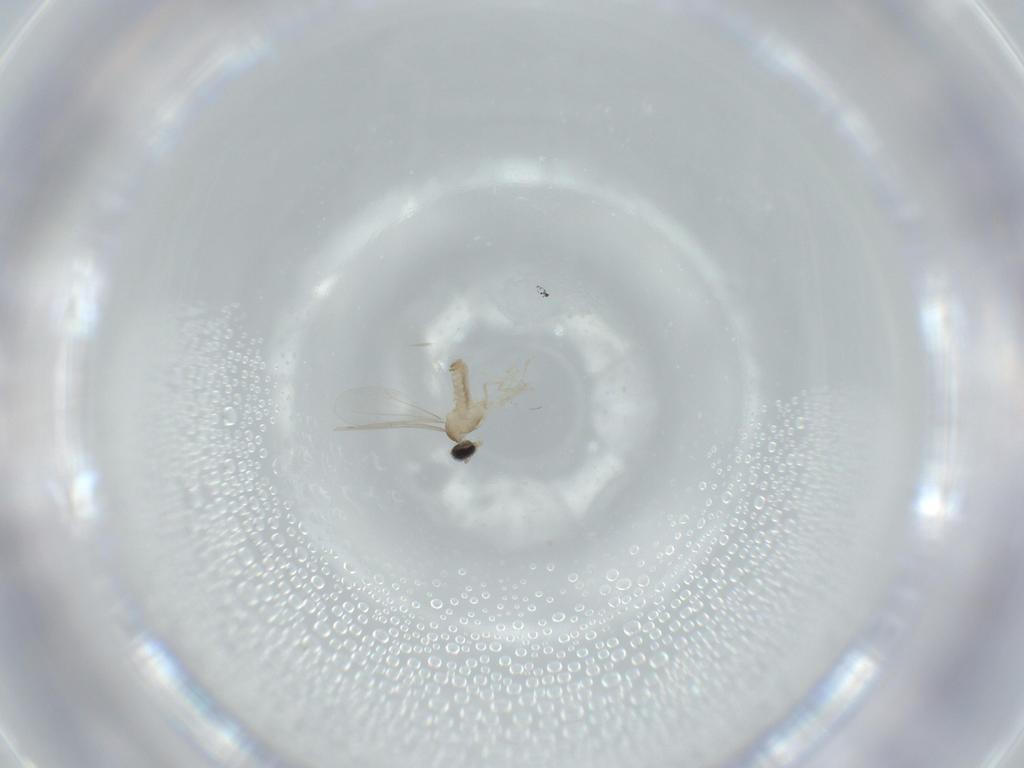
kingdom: Animalia
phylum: Arthropoda
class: Insecta
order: Diptera
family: Cecidomyiidae
